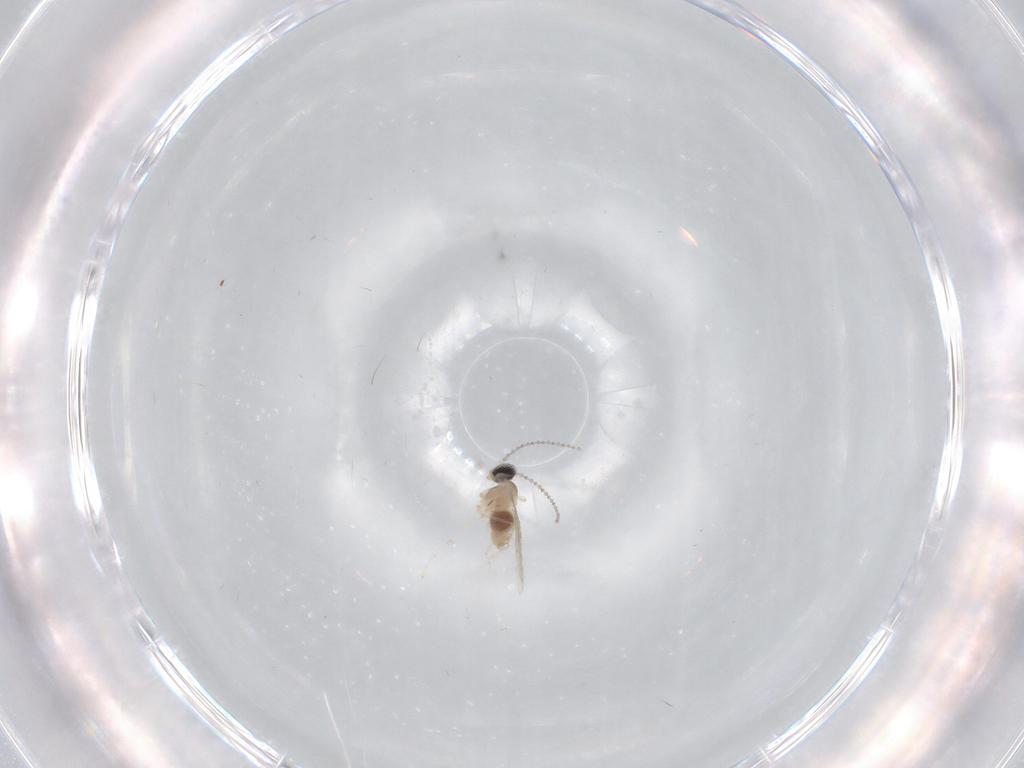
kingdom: Animalia
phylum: Arthropoda
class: Insecta
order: Diptera
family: Cecidomyiidae
